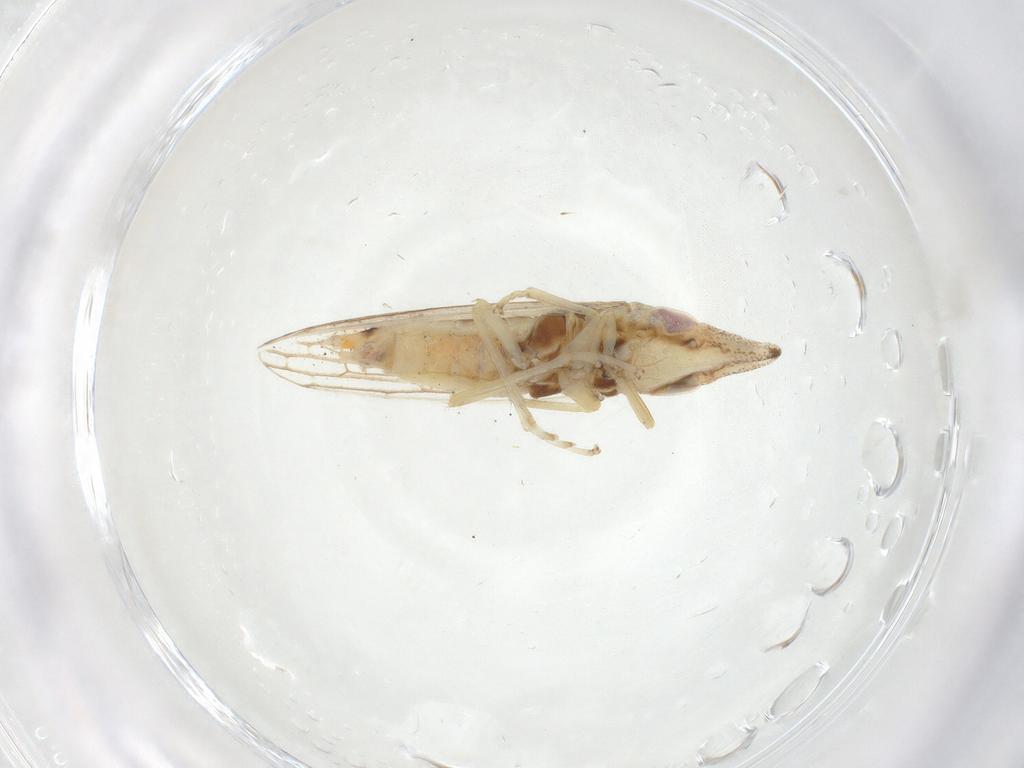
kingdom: Animalia
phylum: Arthropoda
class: Insecta
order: Hemiptera
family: Cicadellidae
